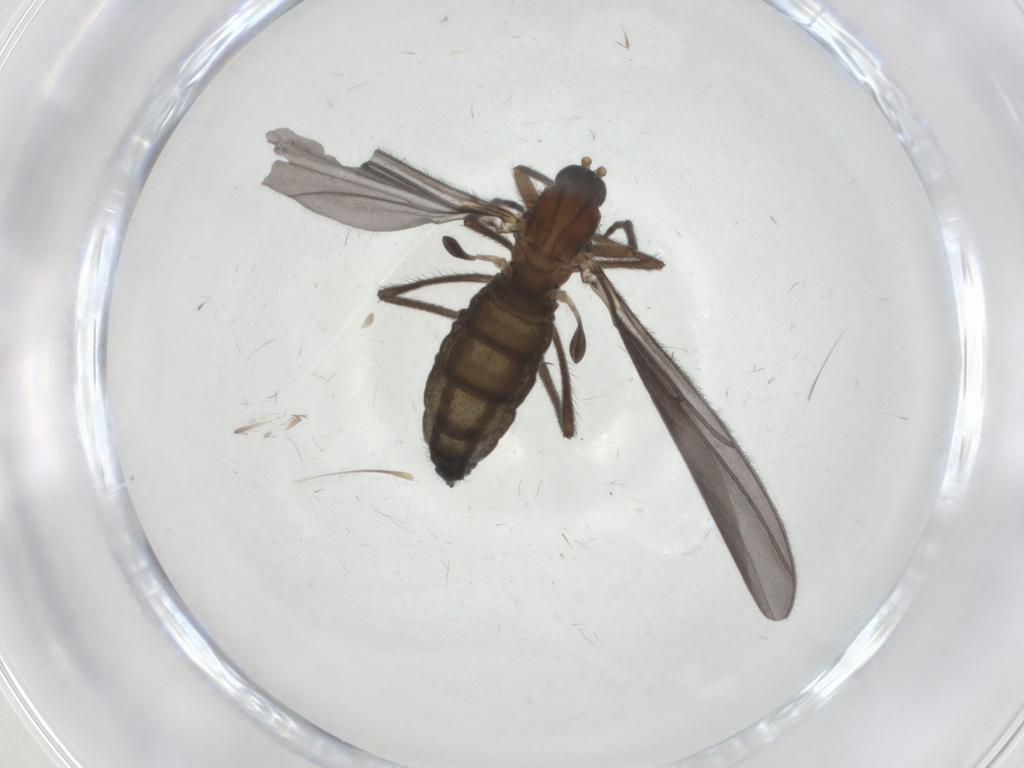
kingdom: Animalia
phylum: Arthropoda
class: Insecta
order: Diptera
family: Cecidomyiidae
